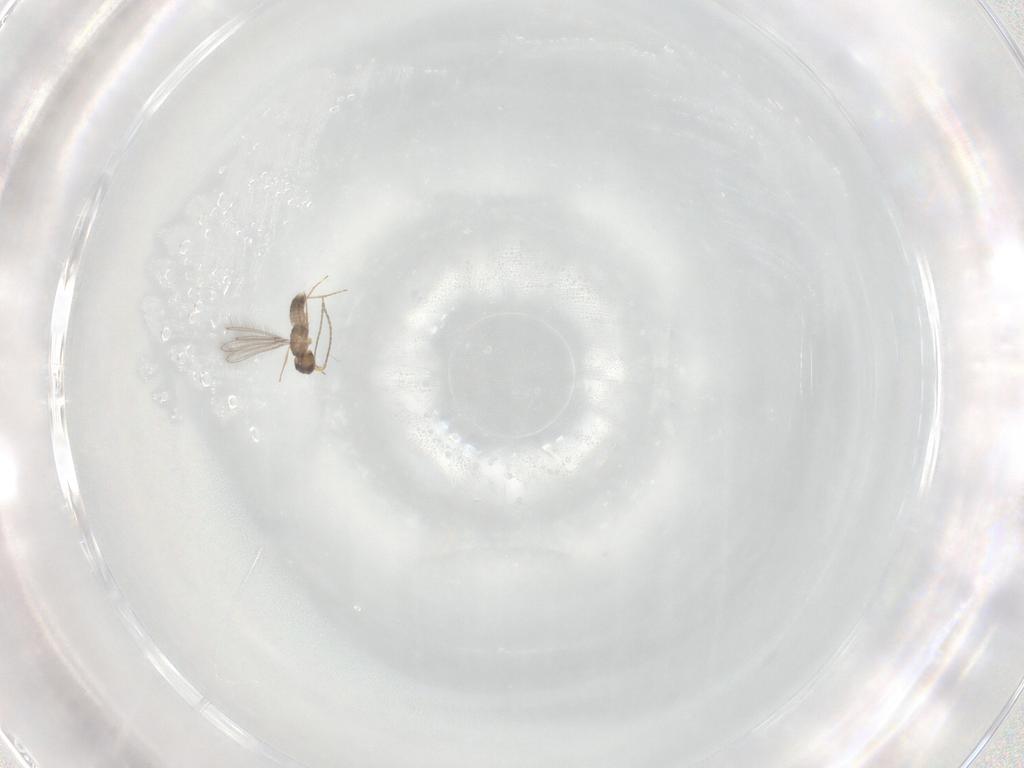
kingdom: Animalia
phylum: Arthropoda
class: Insecta
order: Hymenoptera
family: Mymaridae
